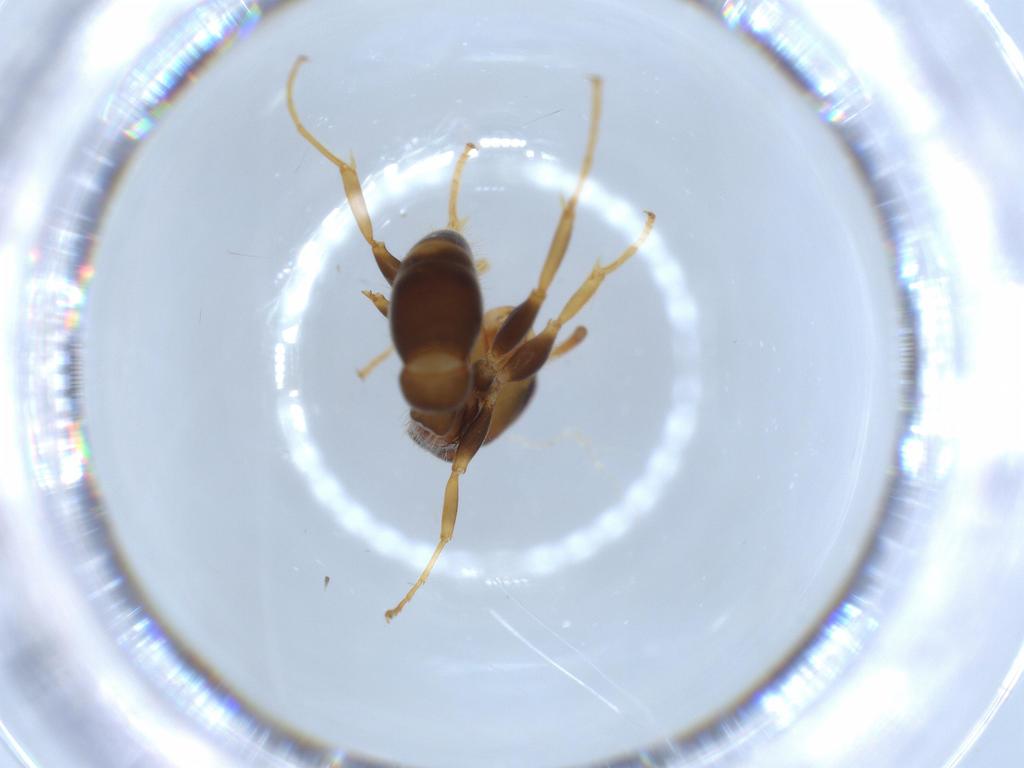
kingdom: Animalia
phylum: Arthropoda
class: Insecta
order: Hymenoptera
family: Formicidae
